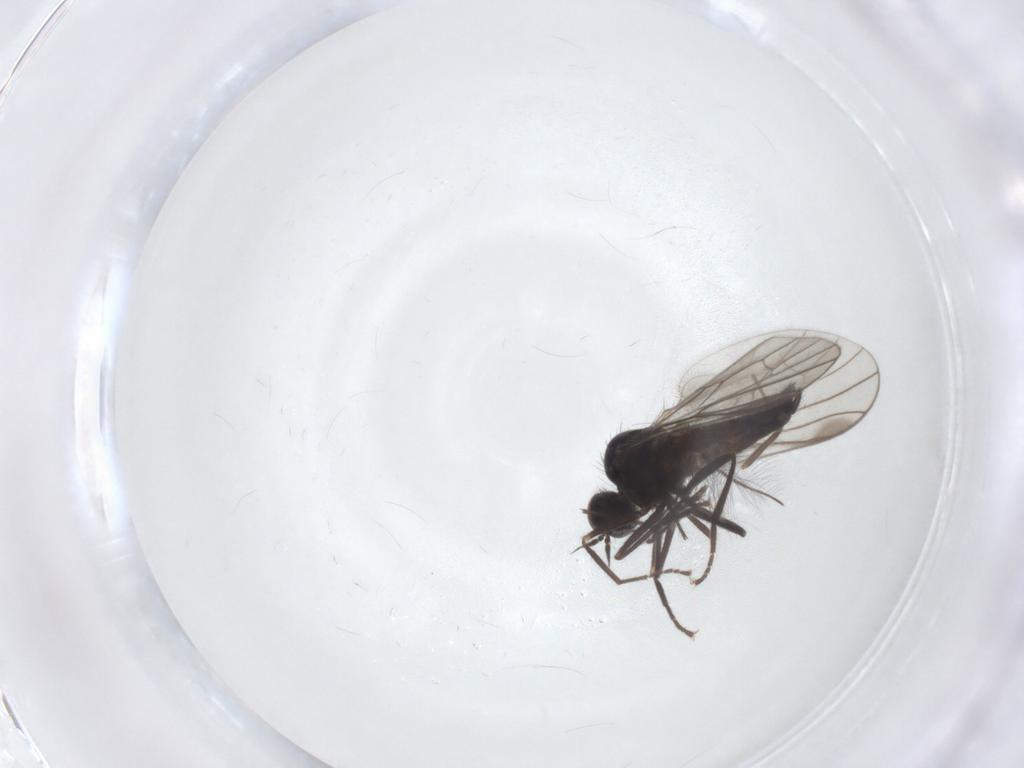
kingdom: Animalia
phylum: Arthropoda
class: Insecta
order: Diptera
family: Hybotidae
